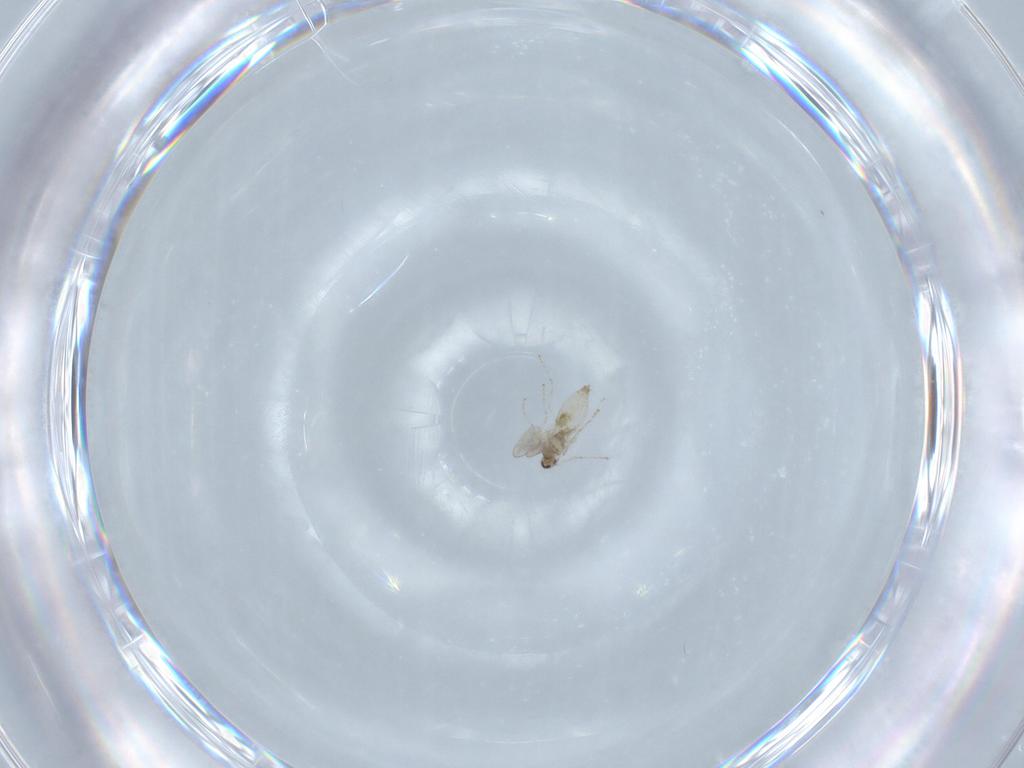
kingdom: Animalia
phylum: Arthropoda
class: Insecta
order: Diptera
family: Cecidomyiidae
